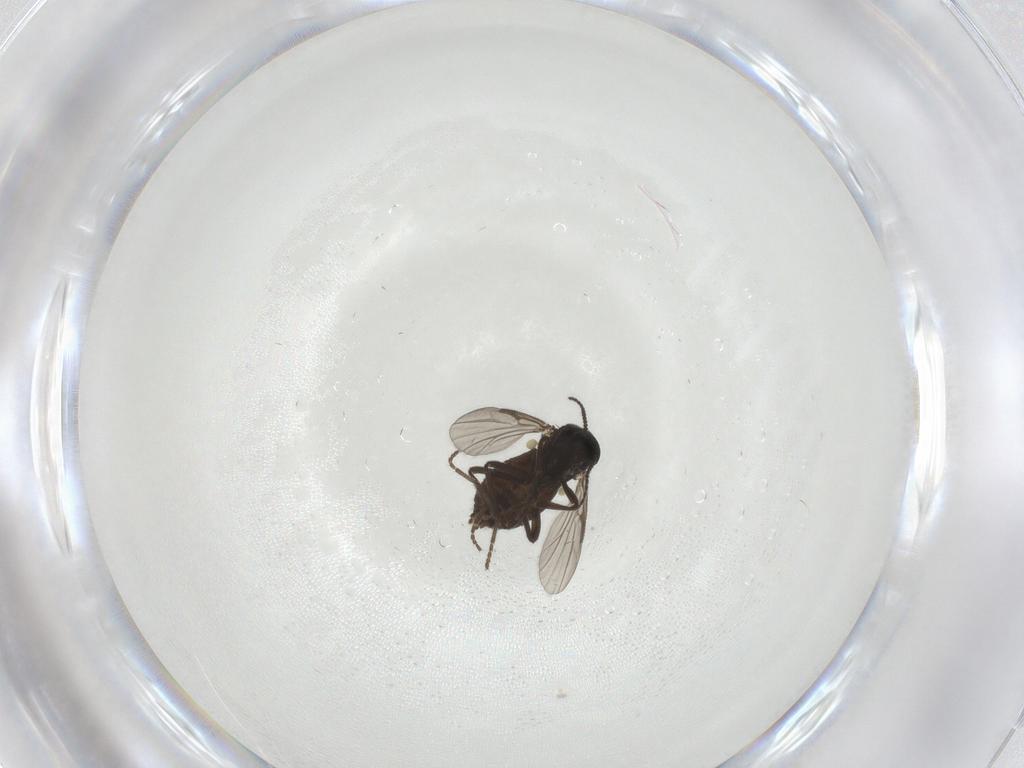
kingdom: Animalia
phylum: Arthropoda
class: Insecta
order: Diptera
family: Ceratopogonidae
